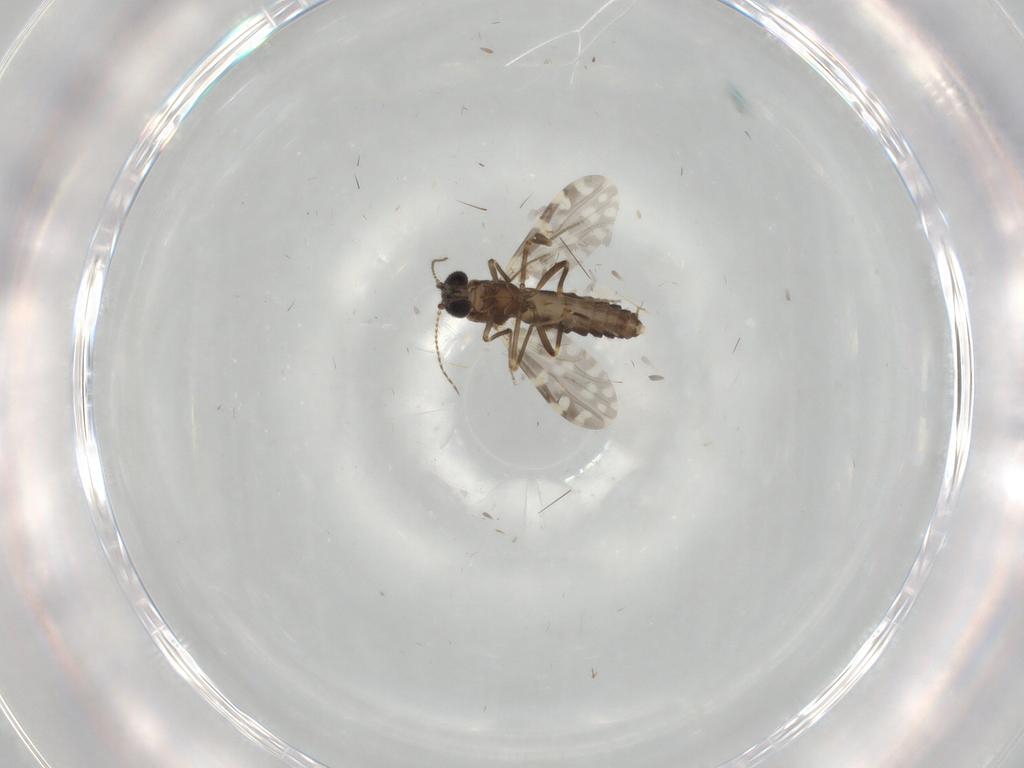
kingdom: Animalia
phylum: Arthropoda
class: Insecta
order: Diptera
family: Ceratopogonidae
